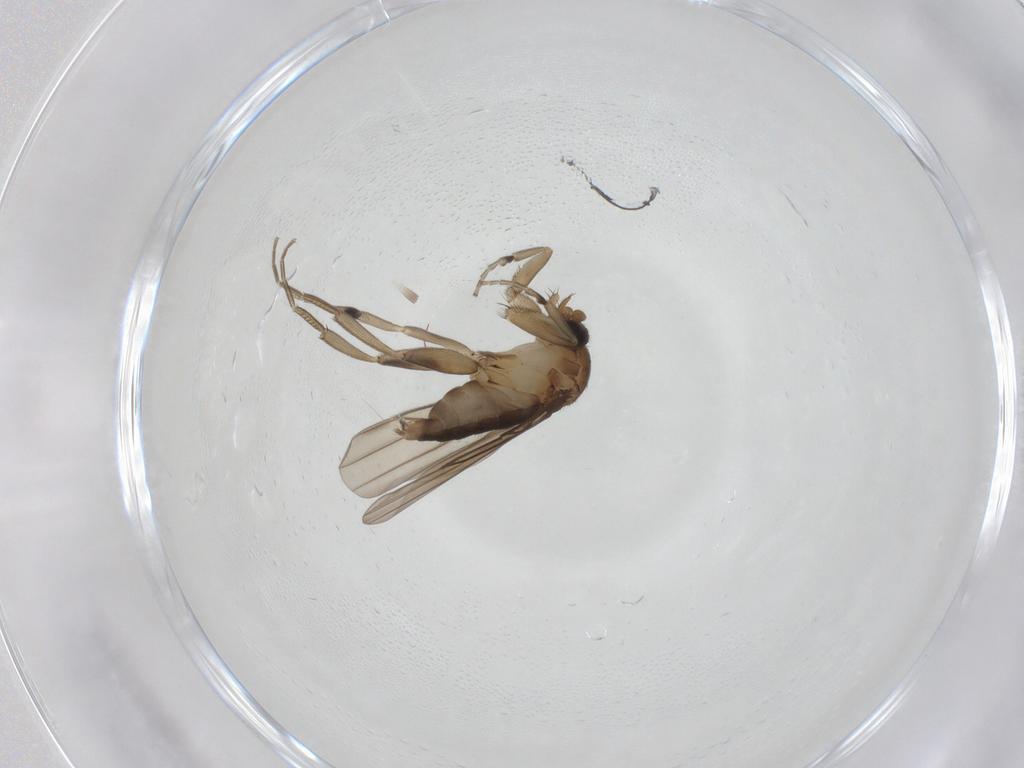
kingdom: Animalia
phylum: Arthropoda
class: Insecta
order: Diptera
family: Phoridae
